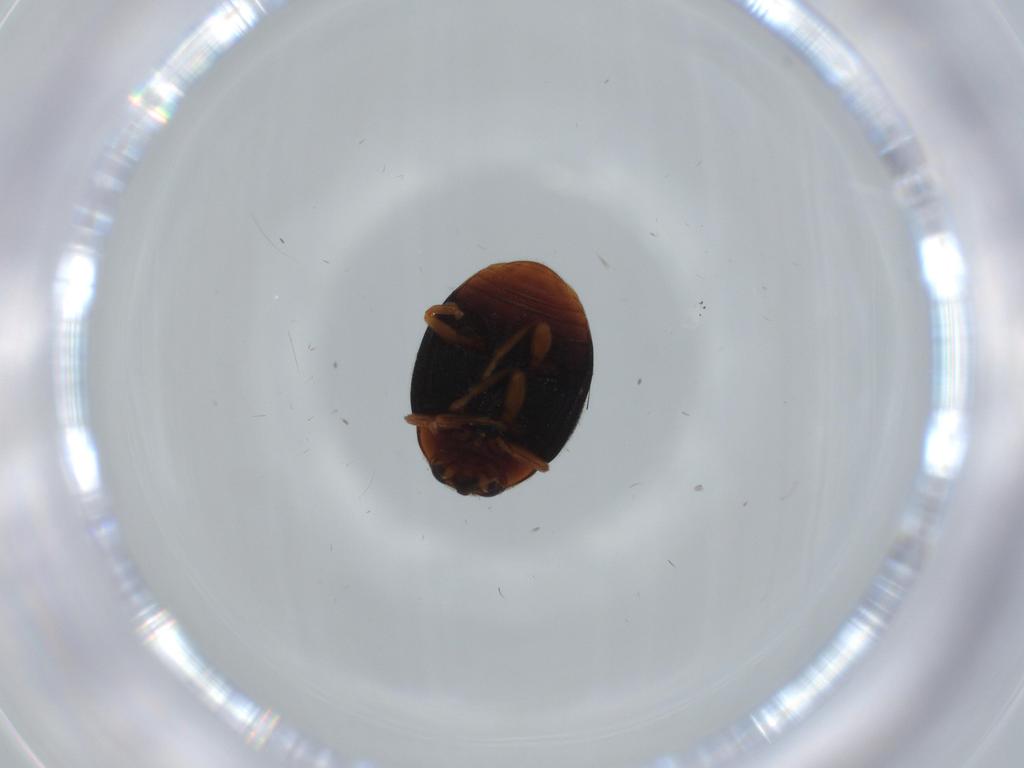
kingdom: Animalia
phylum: Arthropoda
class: Insecta
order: Coleoptera
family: Coccinellidae
